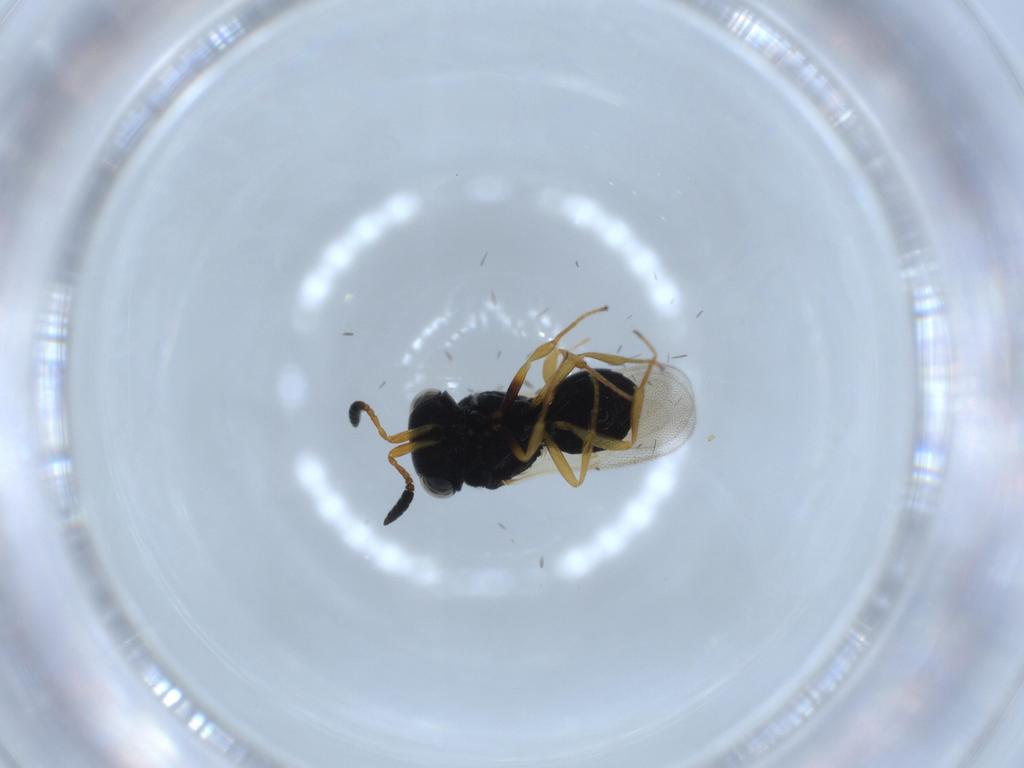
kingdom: Animalia
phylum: Arthropoda
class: Insecta
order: Hymenoptera
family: Scelionidae
